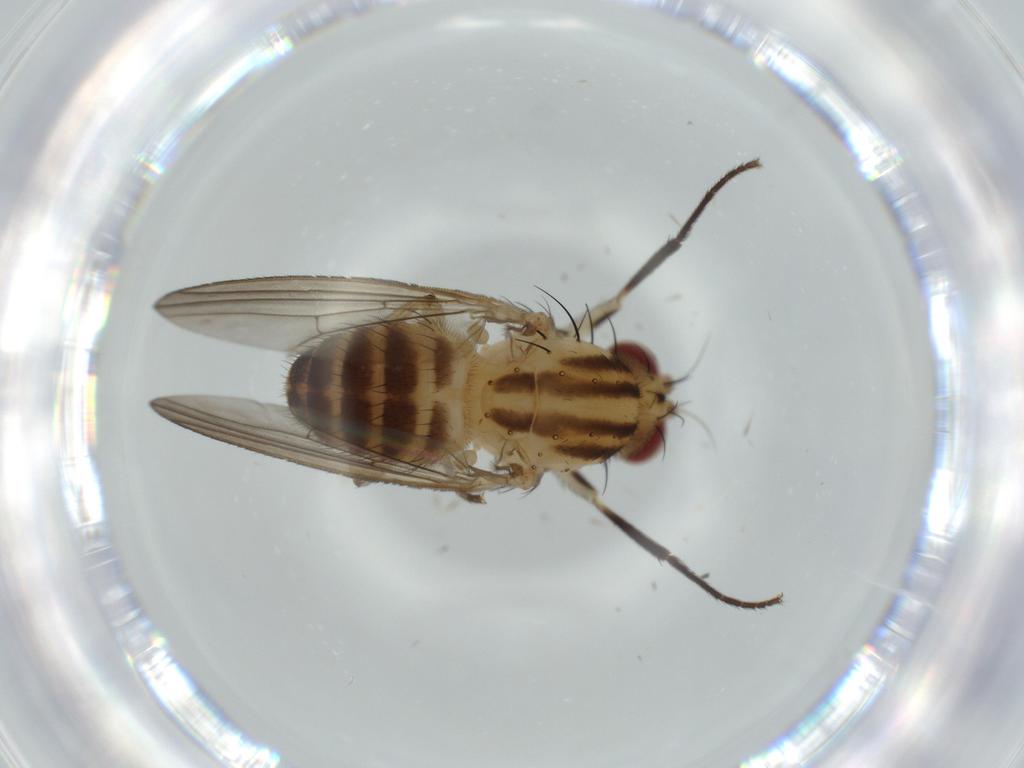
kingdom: Animalia
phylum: Arthropoda
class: Insecta
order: Diptera
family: Lauxaniidae
